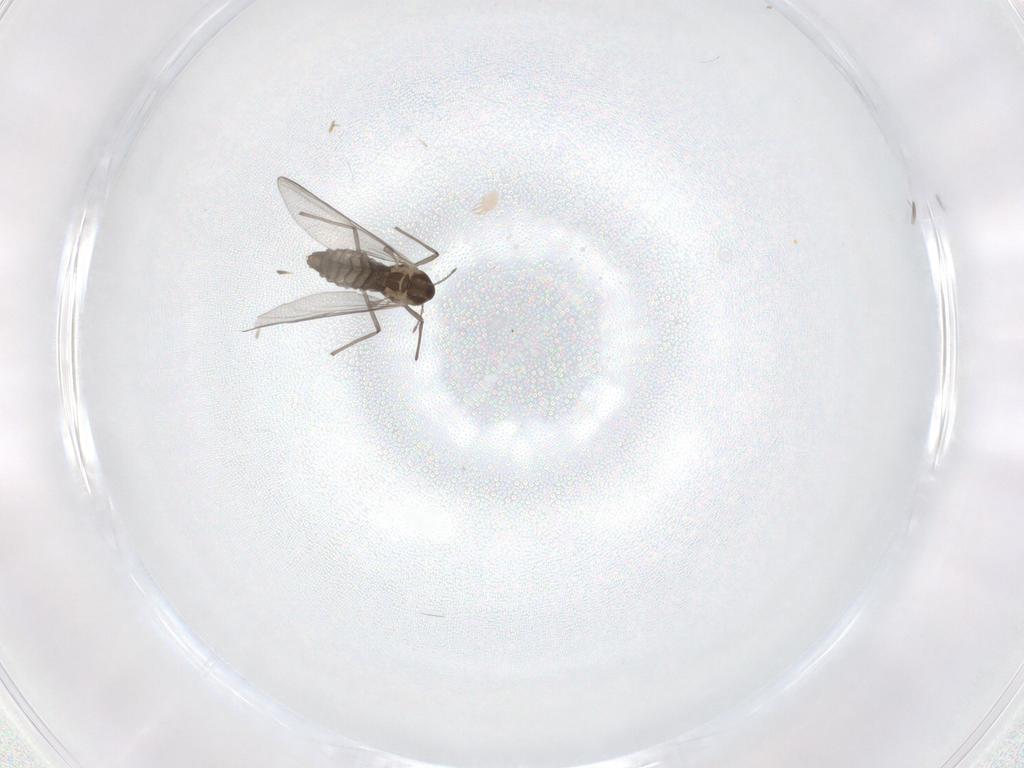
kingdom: Animalia
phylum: Arthropoda
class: Insecta
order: Diptera
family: Chironomidae
